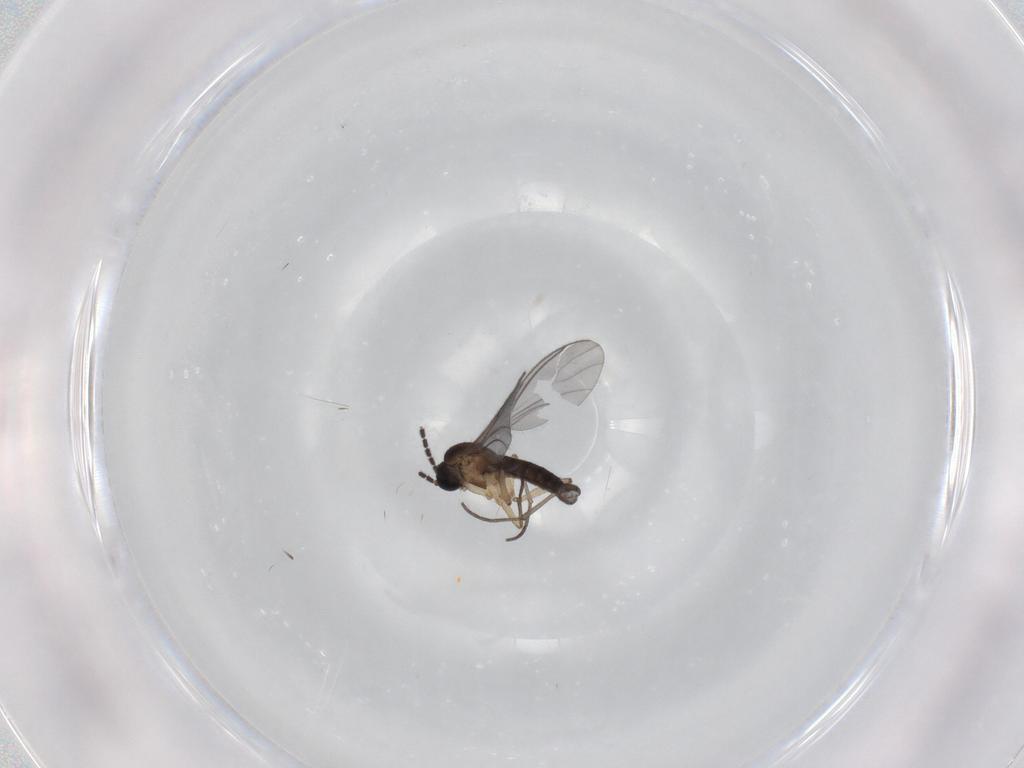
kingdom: Animalia
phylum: Arthropoda
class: Insecta
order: Diptera
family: Sciaridae
